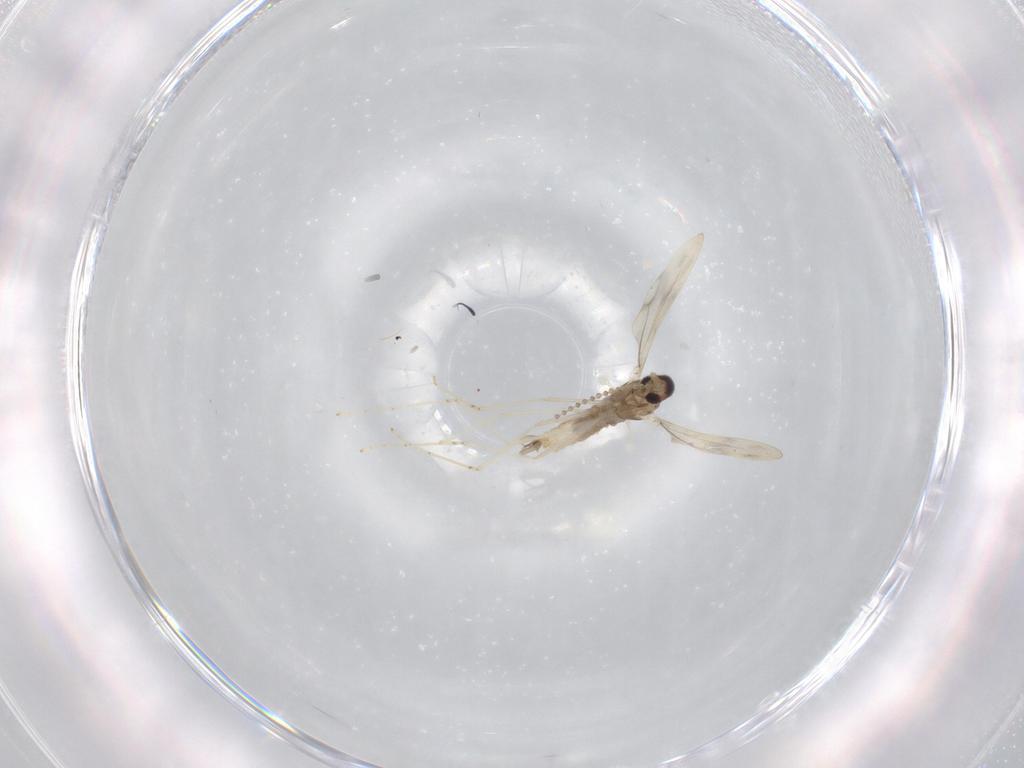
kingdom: Animalia
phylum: Arthropoda
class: Insecta
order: Diptera
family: Cecidomyiidae
